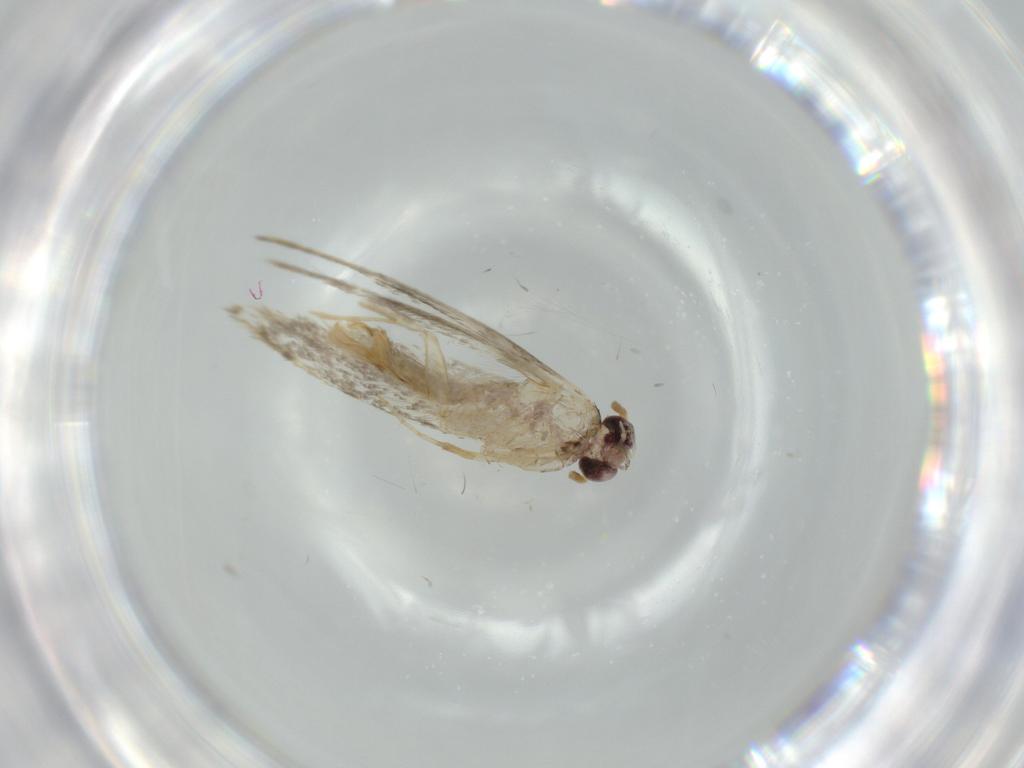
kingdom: Animalia
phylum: Arthropoda
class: Insecta
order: Lepidoptera
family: Tineidae
